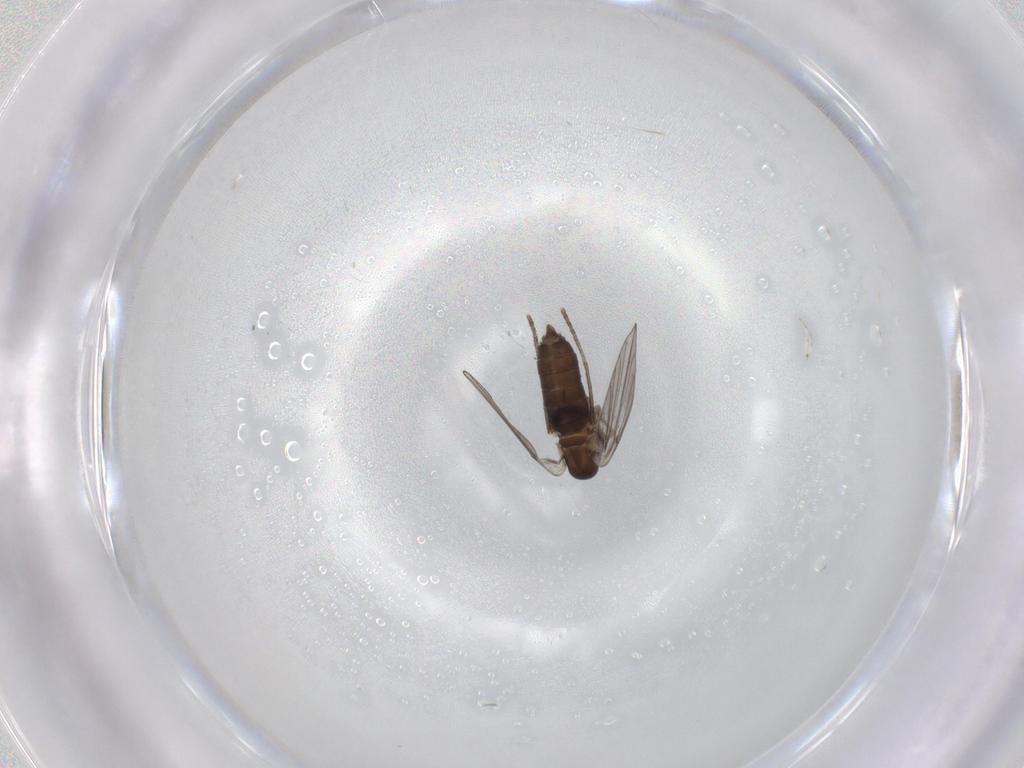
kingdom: Animalia
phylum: Arthropoda
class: Insecta
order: Diptera
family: Psychodidae
